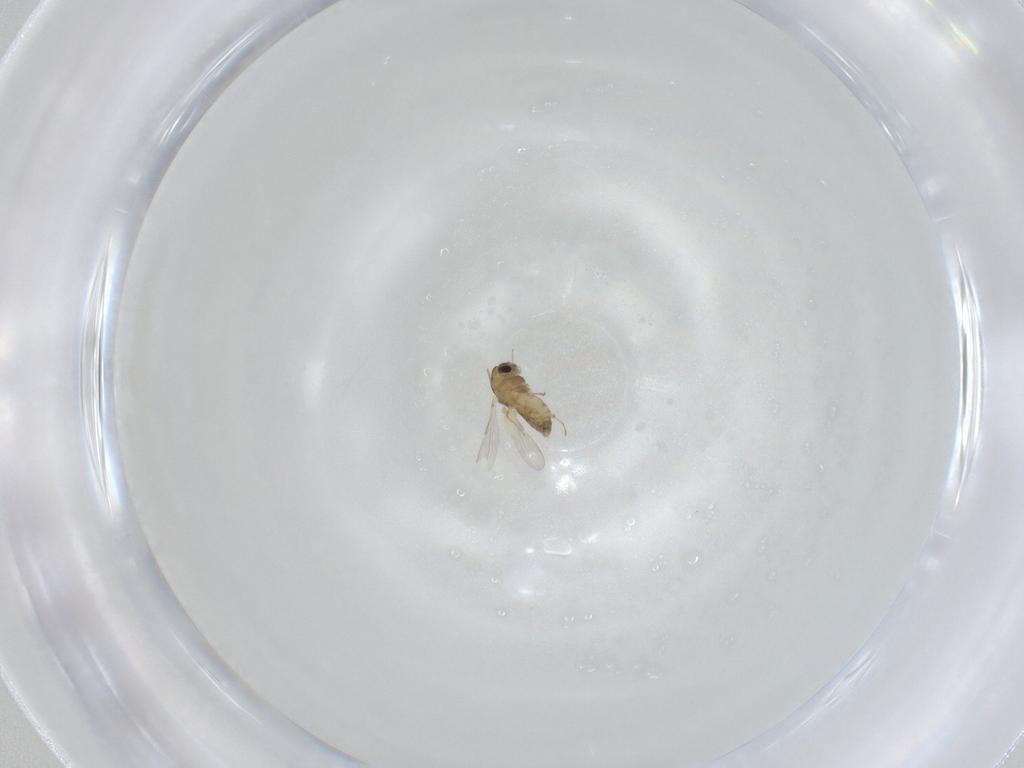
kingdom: Animalia
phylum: Arthropoda
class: Insecta
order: Diptera
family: Chironomidae
